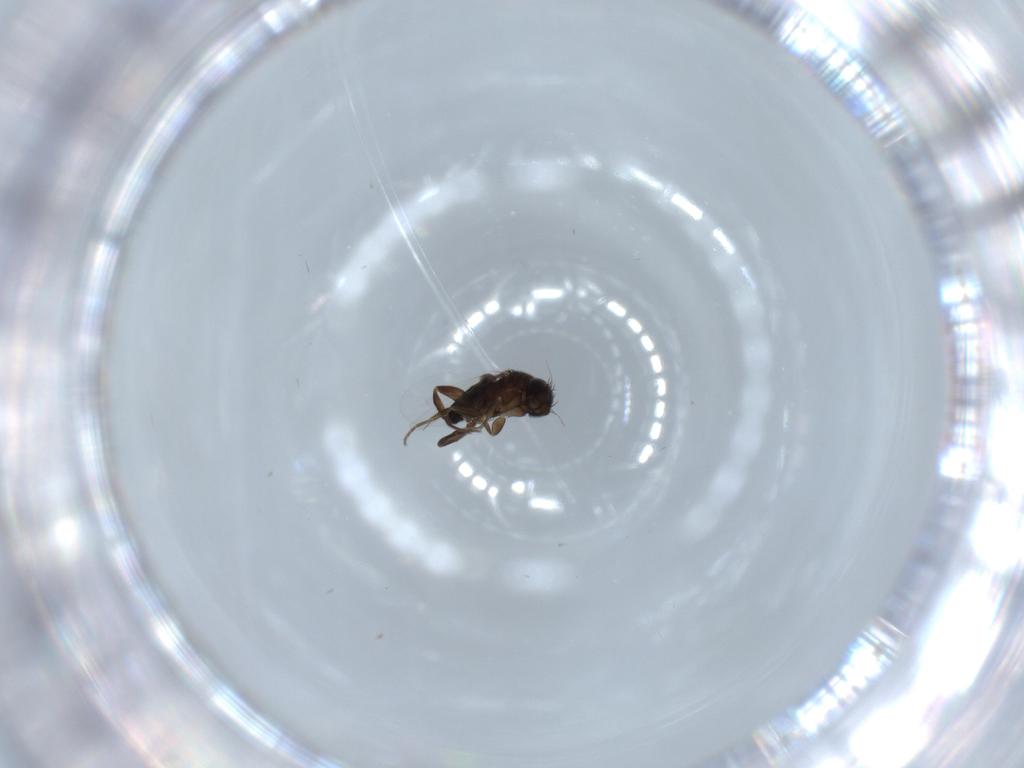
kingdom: Animalia
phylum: Arthropoda
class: Insecta
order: Diptera
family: Phoridae
